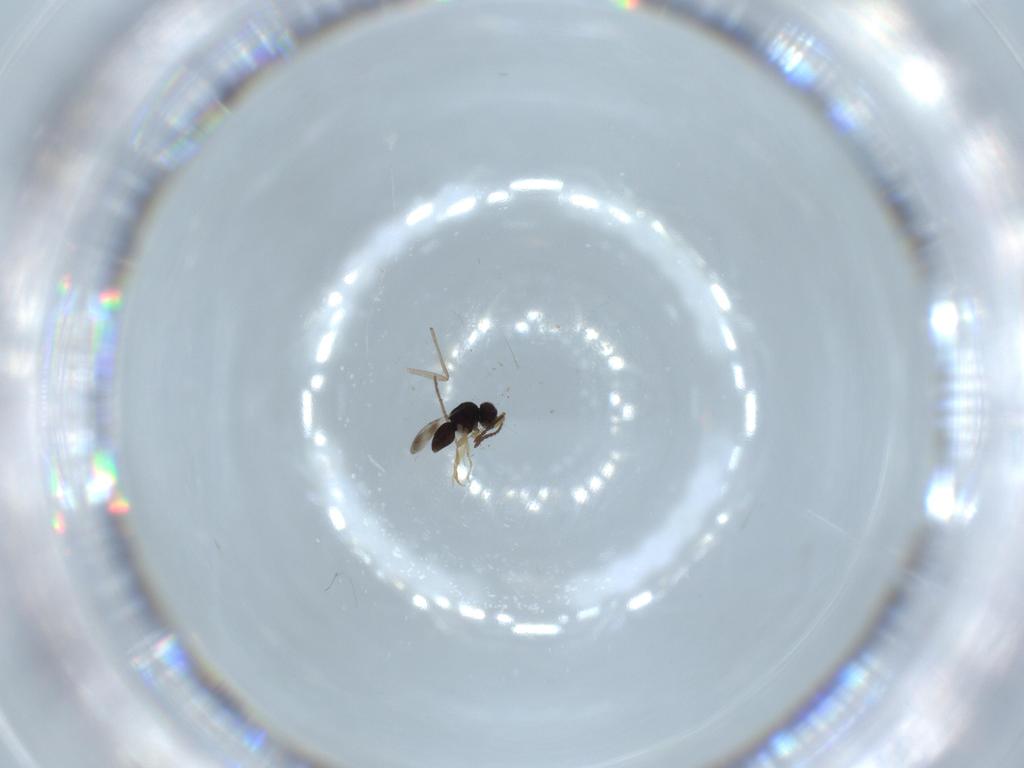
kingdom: Animalia
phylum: Arthropoda
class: Insecta
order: Hymenoptera
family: Ceraphronidae
